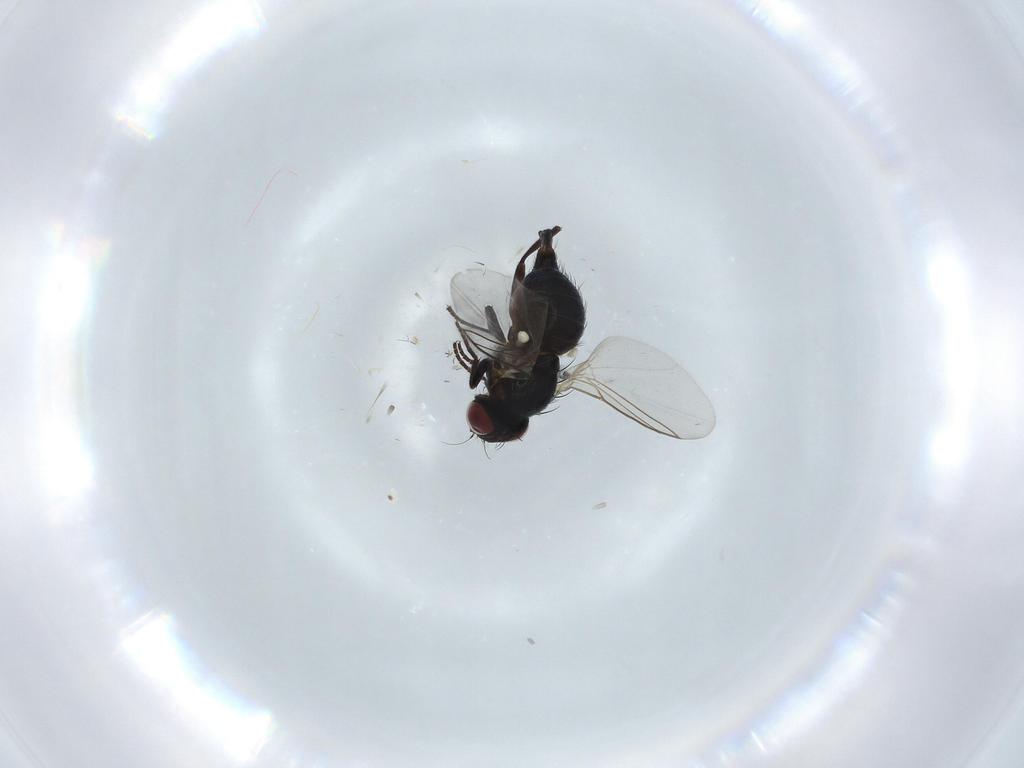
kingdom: Animalia
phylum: Arthropoda
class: Insecta
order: Diptera
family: Agromyzidae
